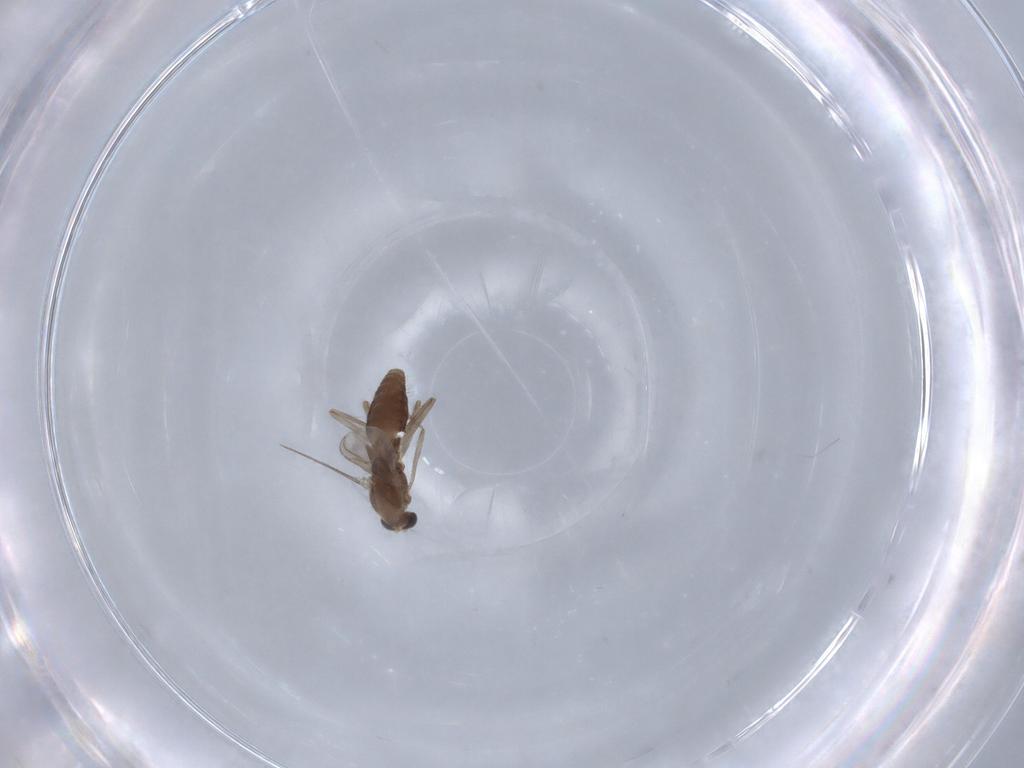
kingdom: Animalia
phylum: Arthropoda
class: Insecta
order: Diptera
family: Chironomidae
